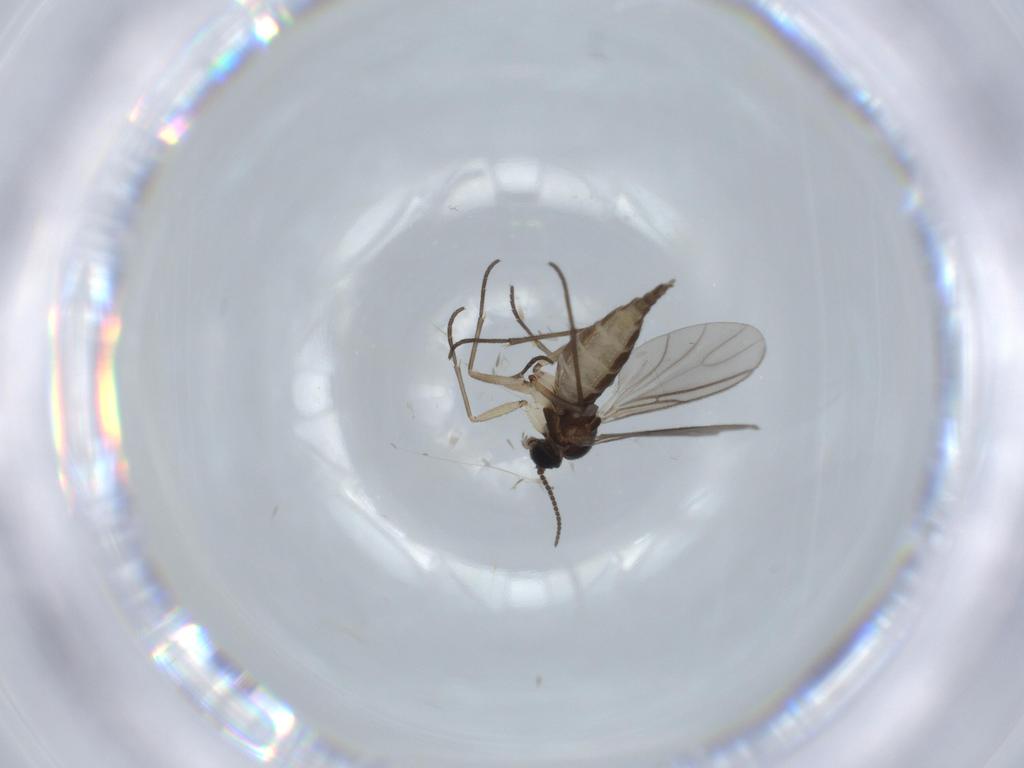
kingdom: Animalia
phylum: Arthropoda
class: Insecta
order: Diptera
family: Sciaridae
